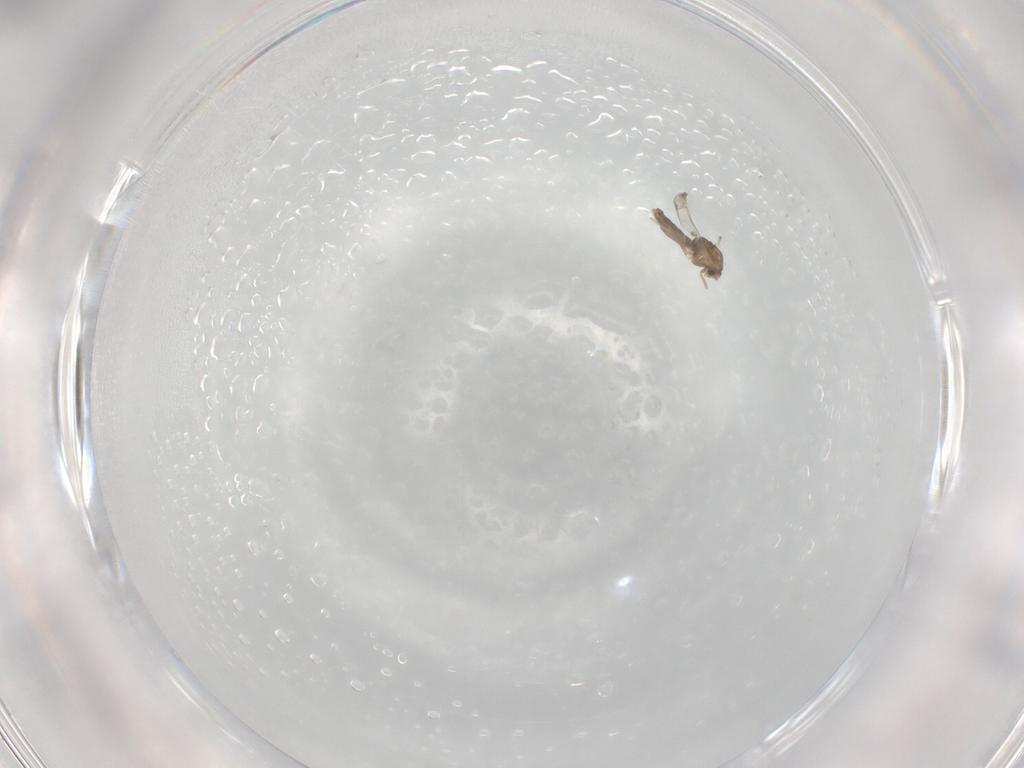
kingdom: Animalia
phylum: Arthropoda
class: Insecta
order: Diptera
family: Chironomidae
